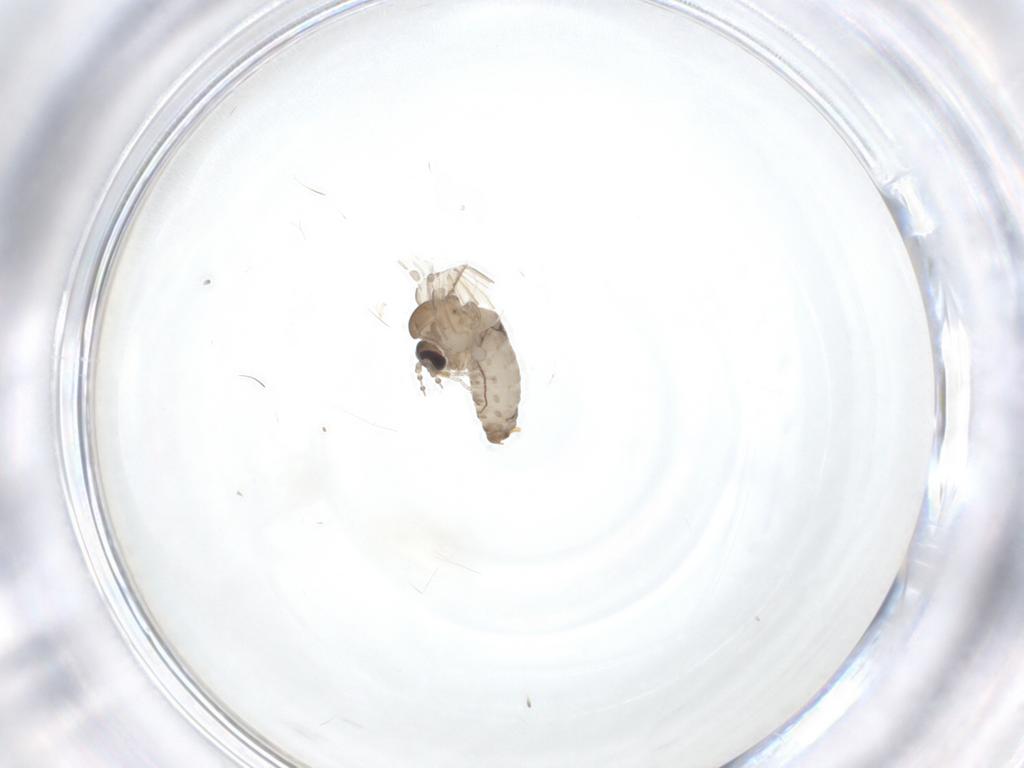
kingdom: Animalia
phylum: Arthropoda
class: Insecta
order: Diptera
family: Psychodidae
